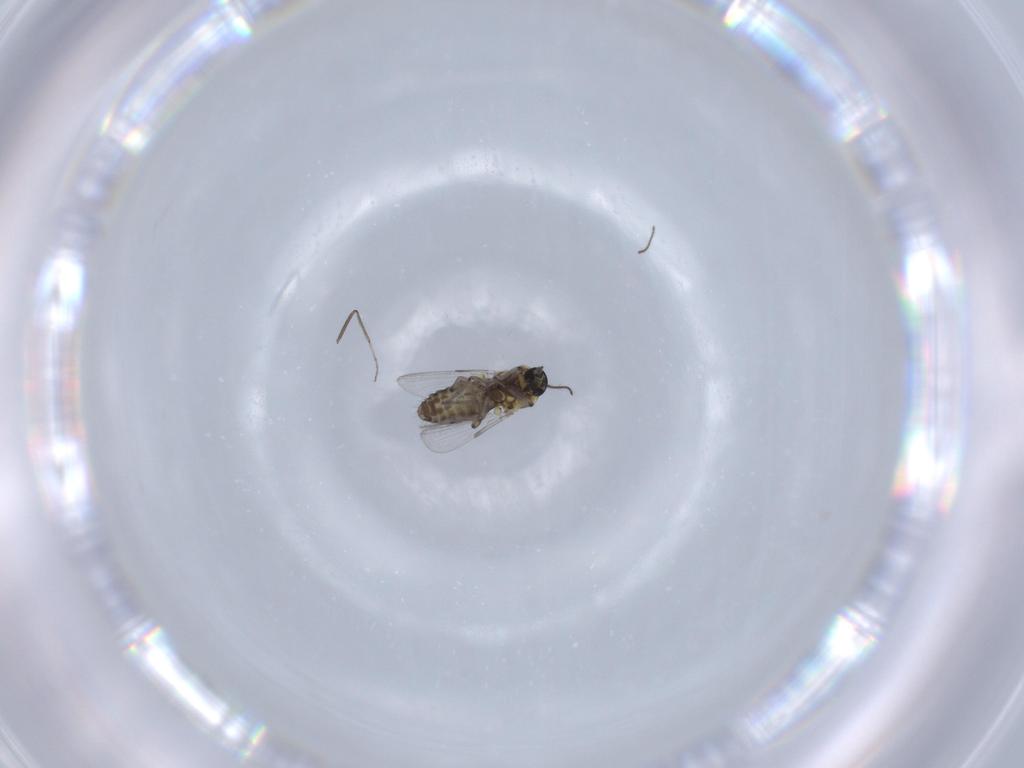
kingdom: Animalia
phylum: Arthropoda
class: Insecta
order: Diptera
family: Ceratopogonidae
